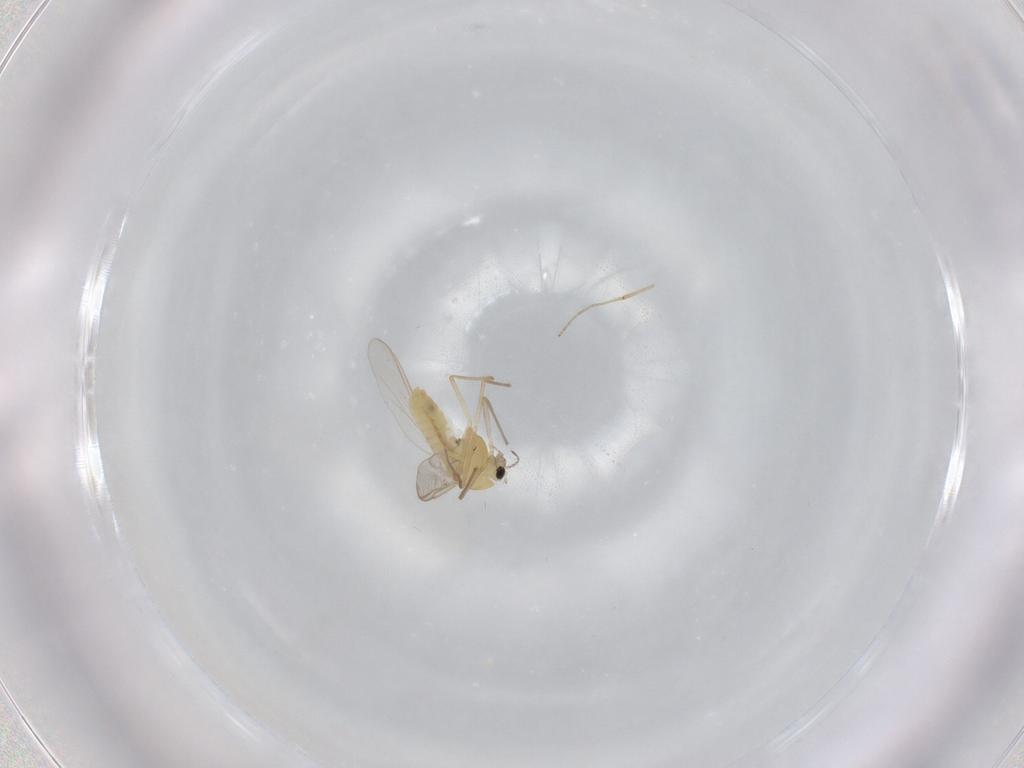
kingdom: Animalia
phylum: Arthropoda
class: Insecta
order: Diptera
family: Chironomidae
